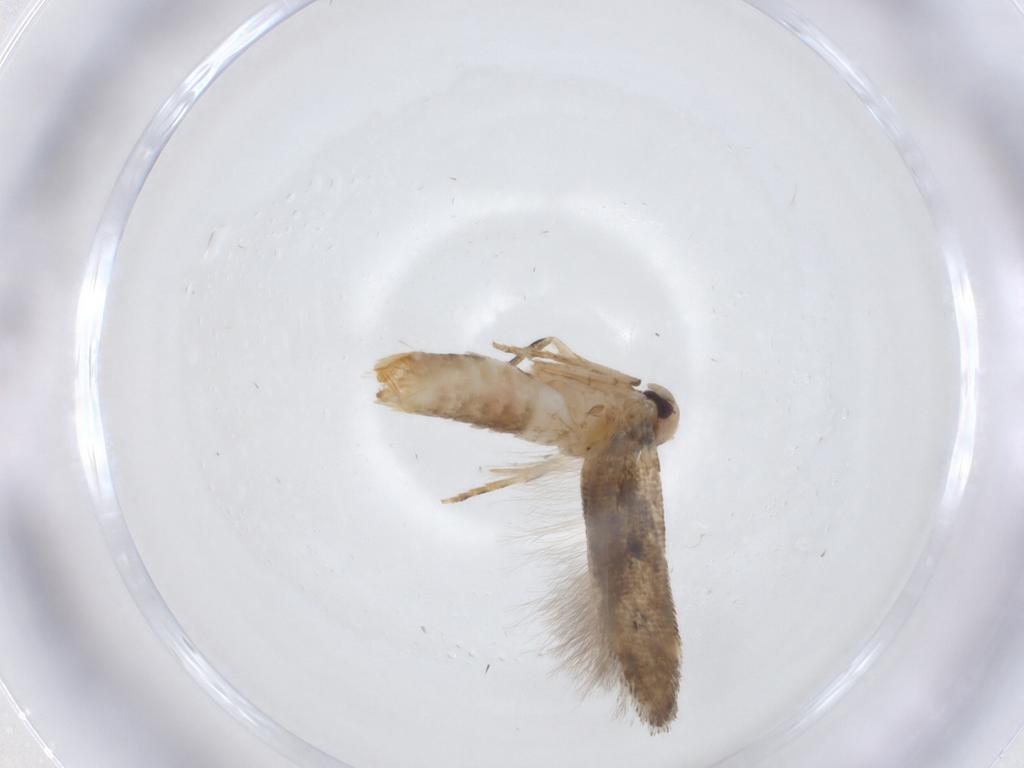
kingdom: Animalia
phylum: Arthropoda
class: Insecta
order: Lepidoptera
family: Gelechiidae
